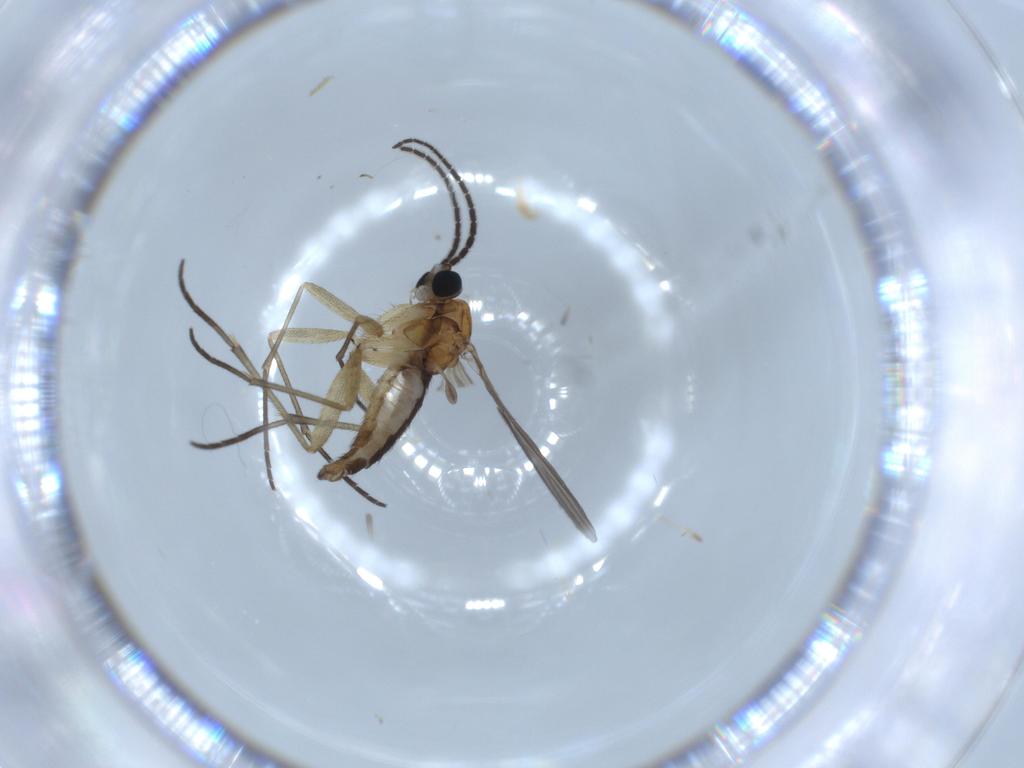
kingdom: Animalia
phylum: Arthropoda
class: Insecta
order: Diptera
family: Sciaridae
